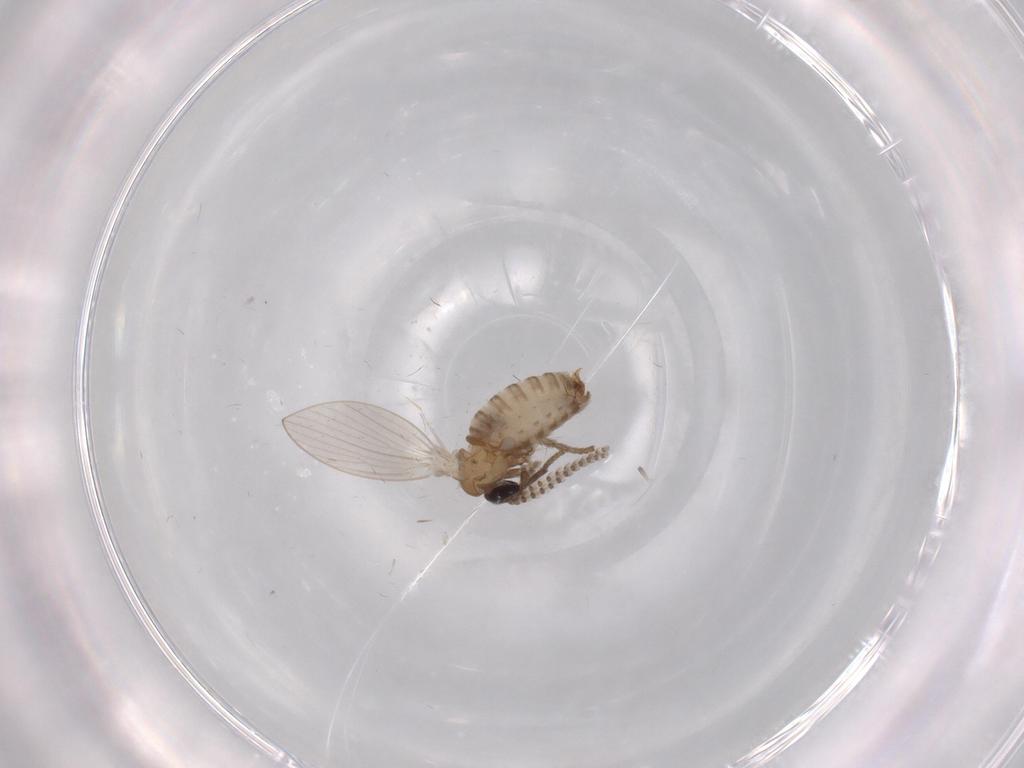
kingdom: Animalia
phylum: Arthropoda
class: Insecta
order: Diptera
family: Psychodidae
